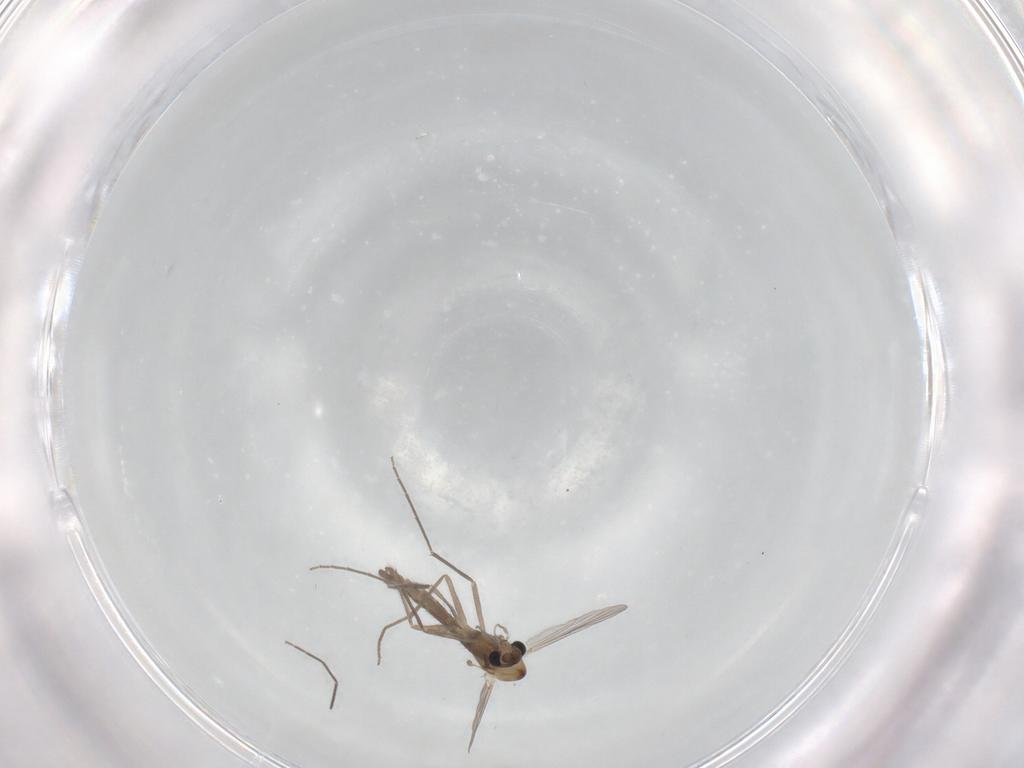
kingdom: Animalia
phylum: Arthropoda
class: Insecta
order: Diptera
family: Chironomidae
